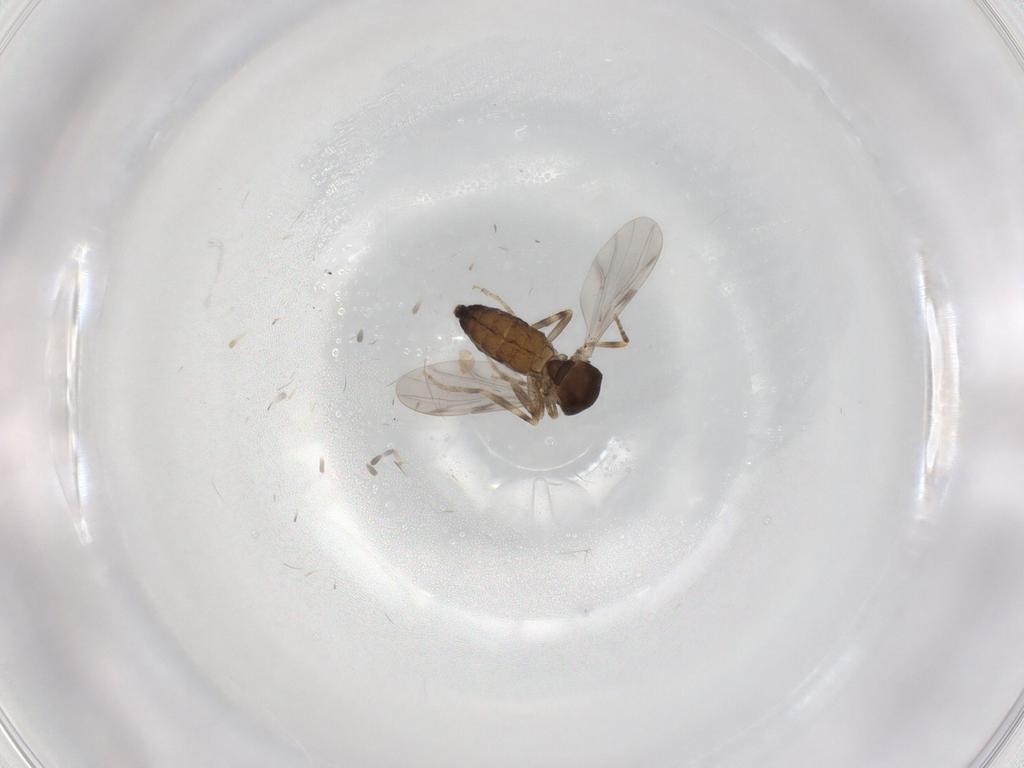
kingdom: Animalia
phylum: Arthropoda
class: Insecta
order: Diptera
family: Ceratopogonidae
